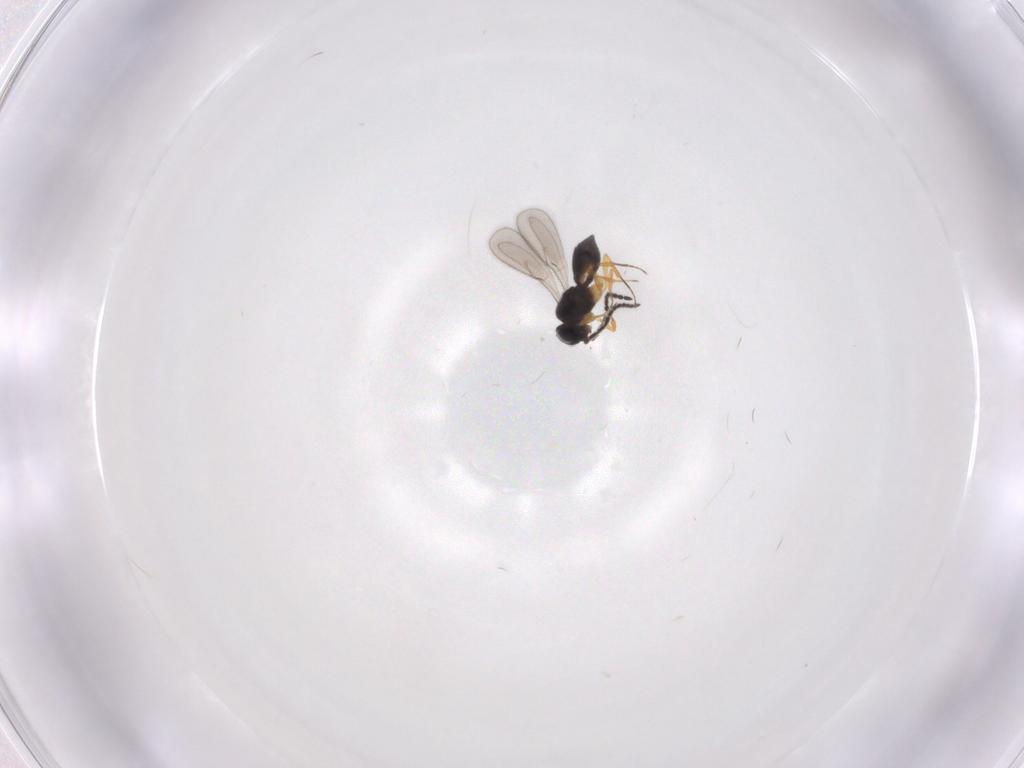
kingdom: Animalia
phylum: Arthropoda
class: Insecta
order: Hymenoptera
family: Scelionidae
